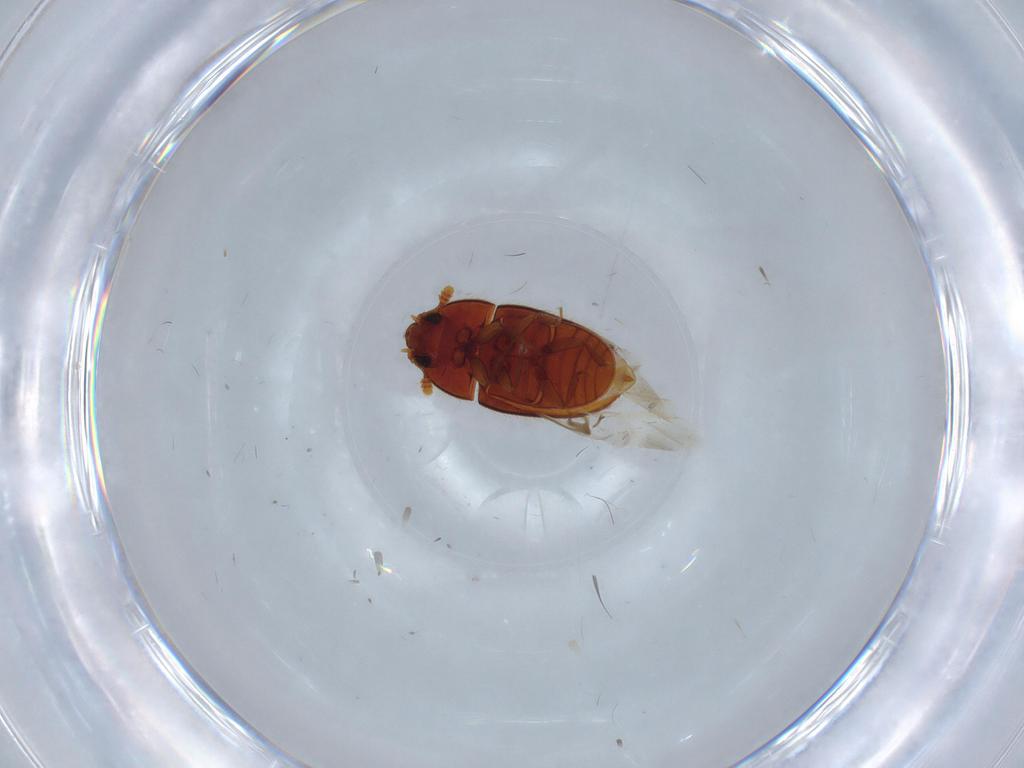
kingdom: Animalia
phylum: Arthropoda
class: Insecta
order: Coleoptera
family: Biphyllidae
